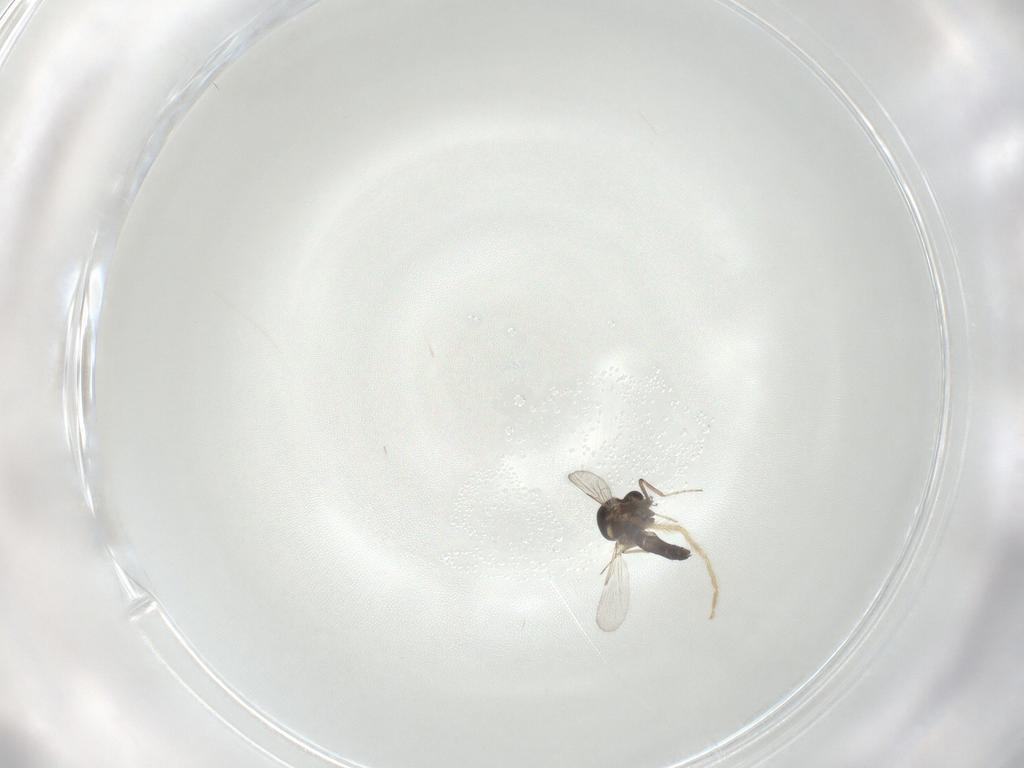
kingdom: Animalia
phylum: Arthropoda
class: Insecta
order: Diptera
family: Ceratopogonidae
